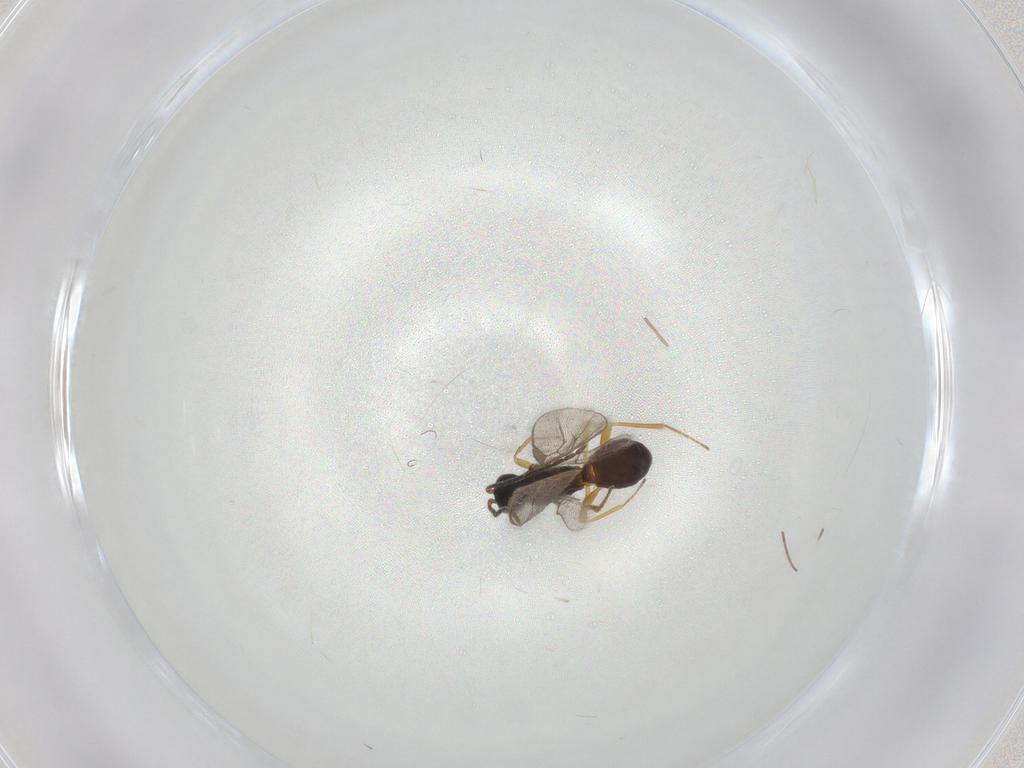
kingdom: Animalia
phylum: Arthropoda
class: Insecta
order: Hymenoptera
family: Braconidae
